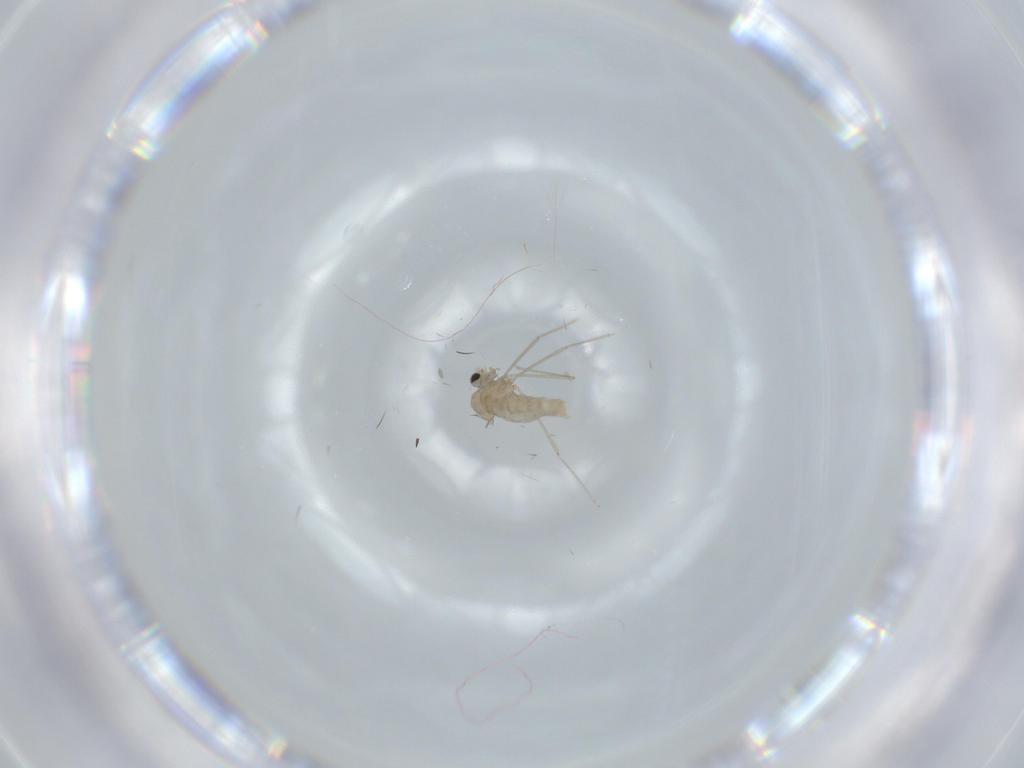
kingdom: Animalia
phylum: Arthropoda
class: Insecta
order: Diptera
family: Cecidomyiidae
